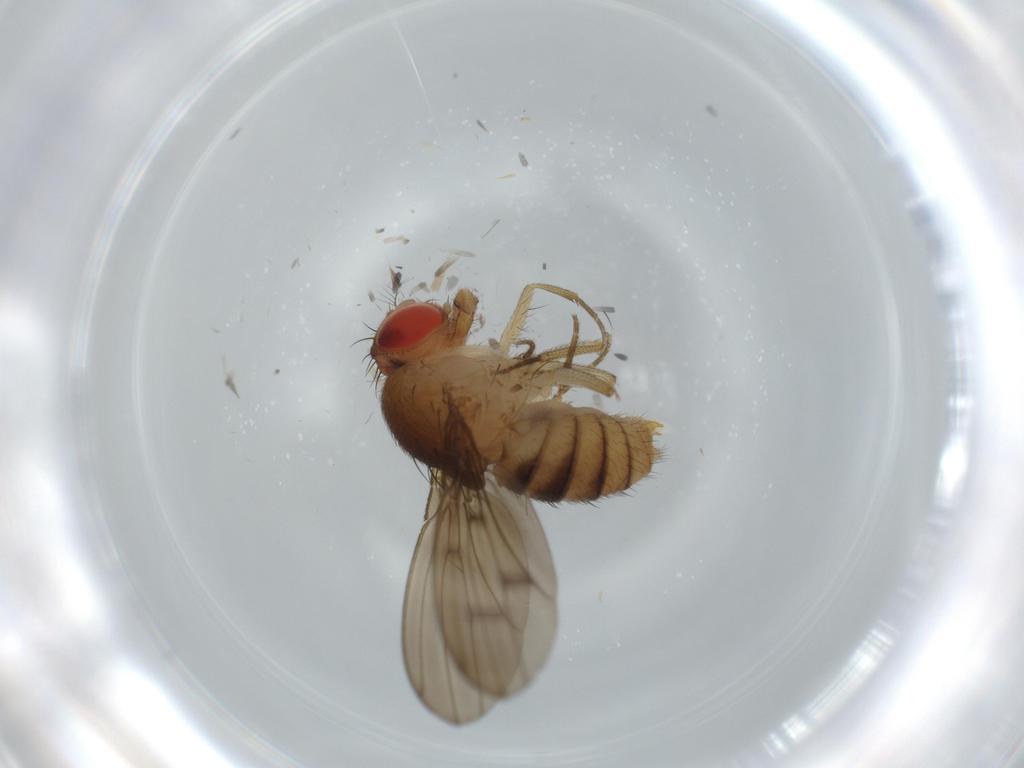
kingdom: Animalia
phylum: Arthropoda
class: Insecta
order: Diptera
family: Drosophilidae
